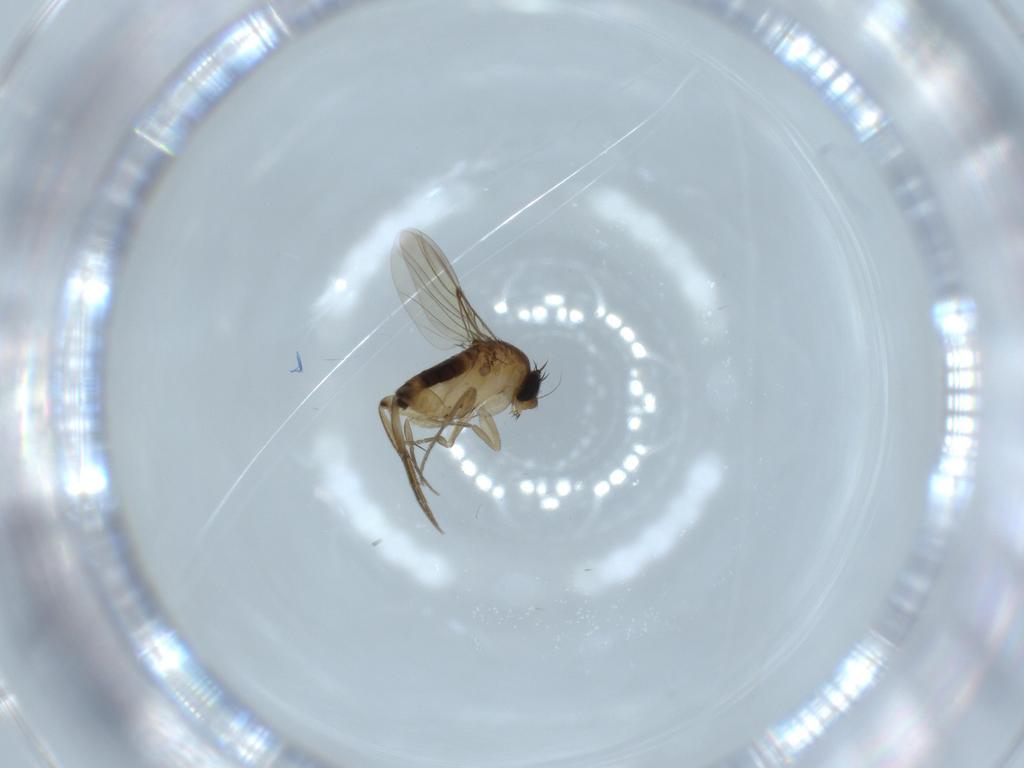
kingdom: Animalia
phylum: Arthropoda
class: Insecta
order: Diptera
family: Phoridae
